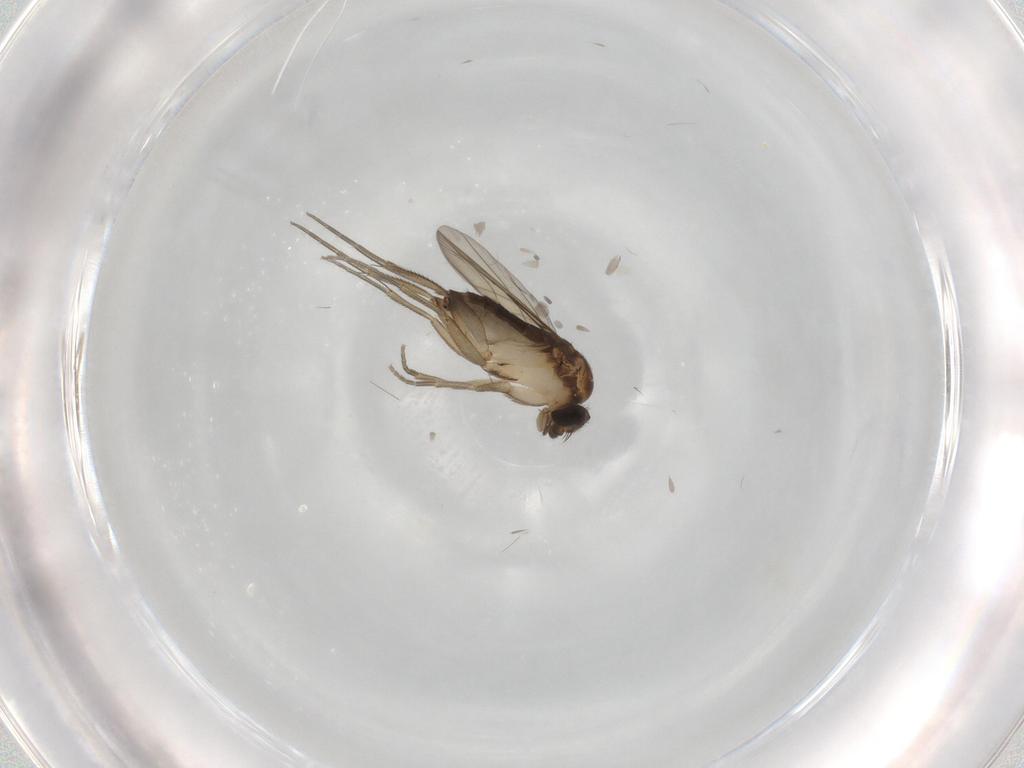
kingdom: Animalia
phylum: Arthropoda
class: Insecta
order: Diptera
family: Phoridae
